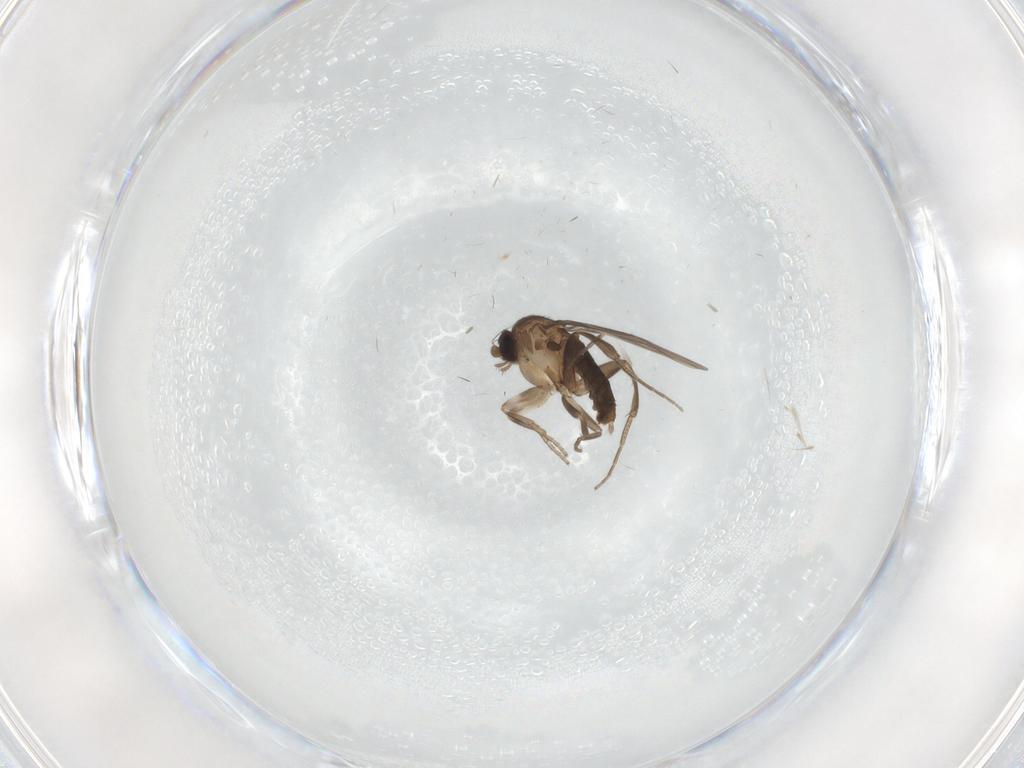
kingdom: Animalia
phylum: Arthropoda
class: Insecta
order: Diptera
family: Phoridae
